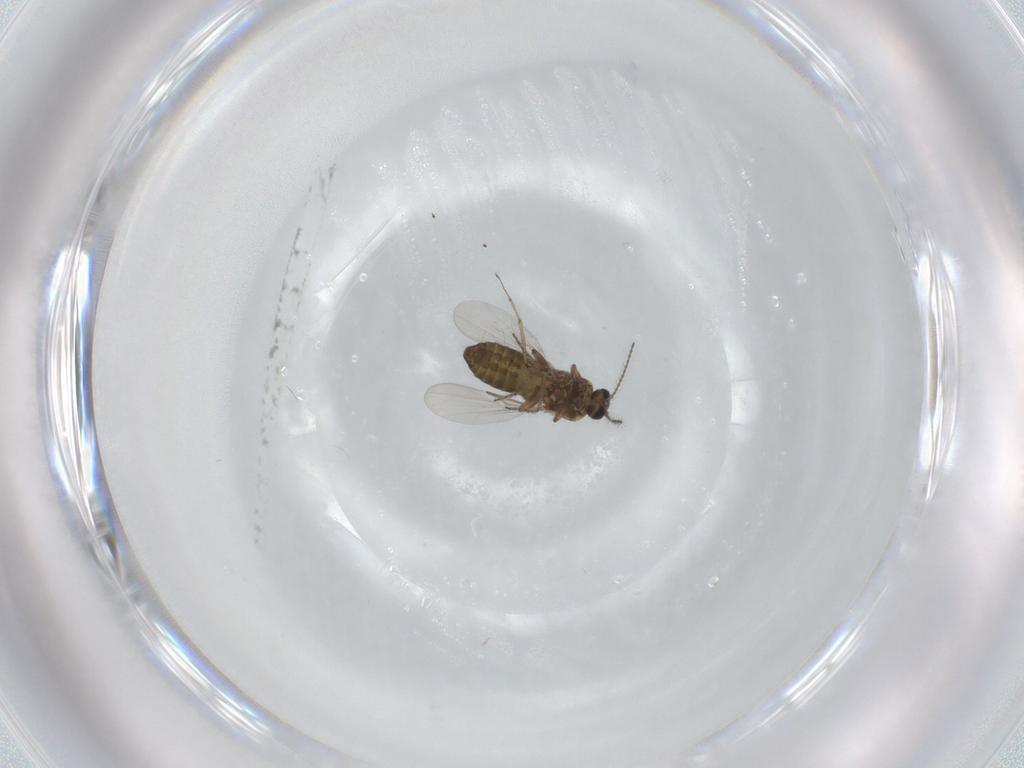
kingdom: Animalia
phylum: Arthropoda
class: Insecta
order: Diptera
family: Ceratopogonidae
